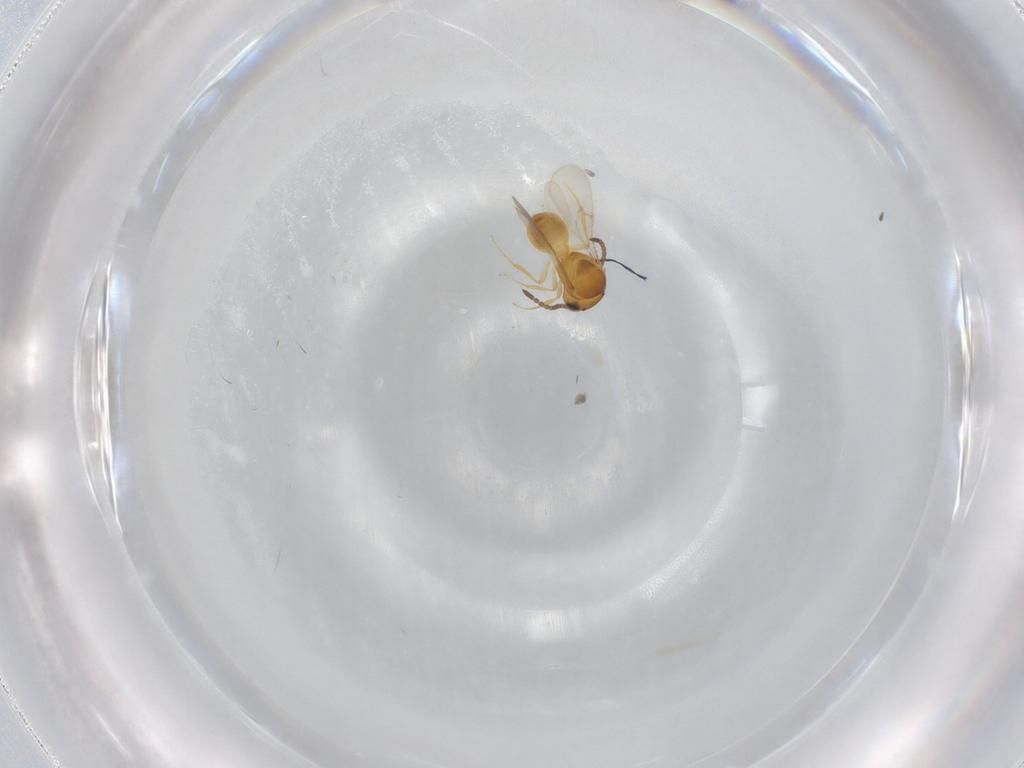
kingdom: Animalia
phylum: Arthropoda
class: Insecta
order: Hymenoptera
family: Scelionidae
